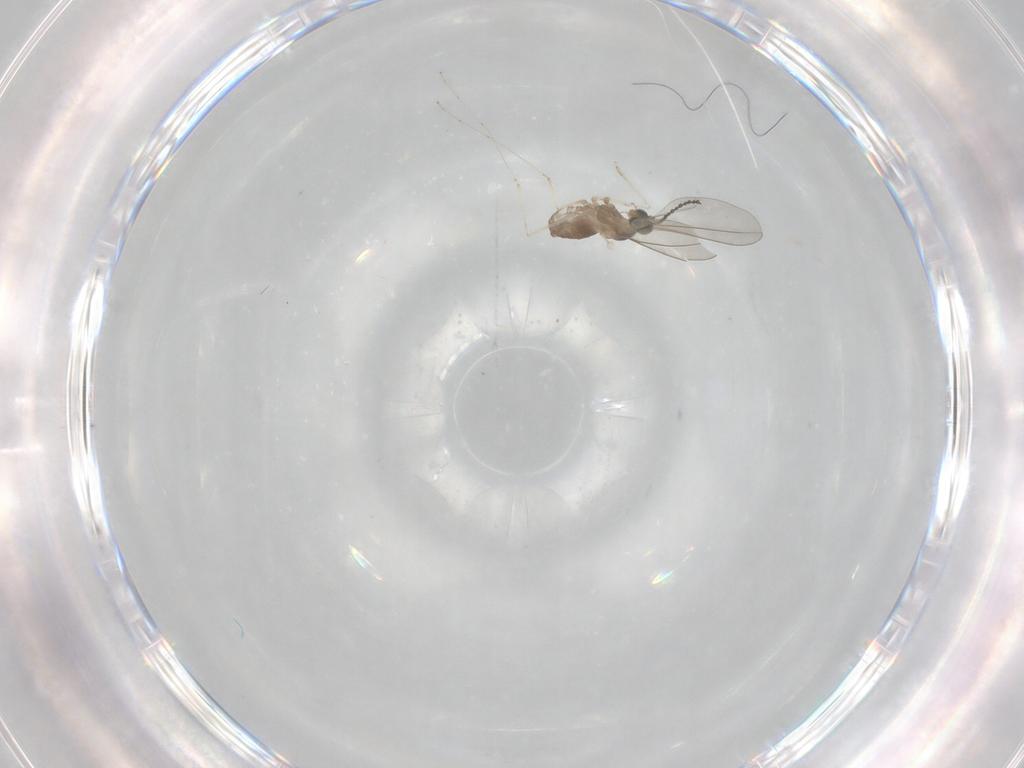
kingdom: Animalia
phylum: Arthropoda
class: Insecta
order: Diptera
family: Cecidomyiidae
